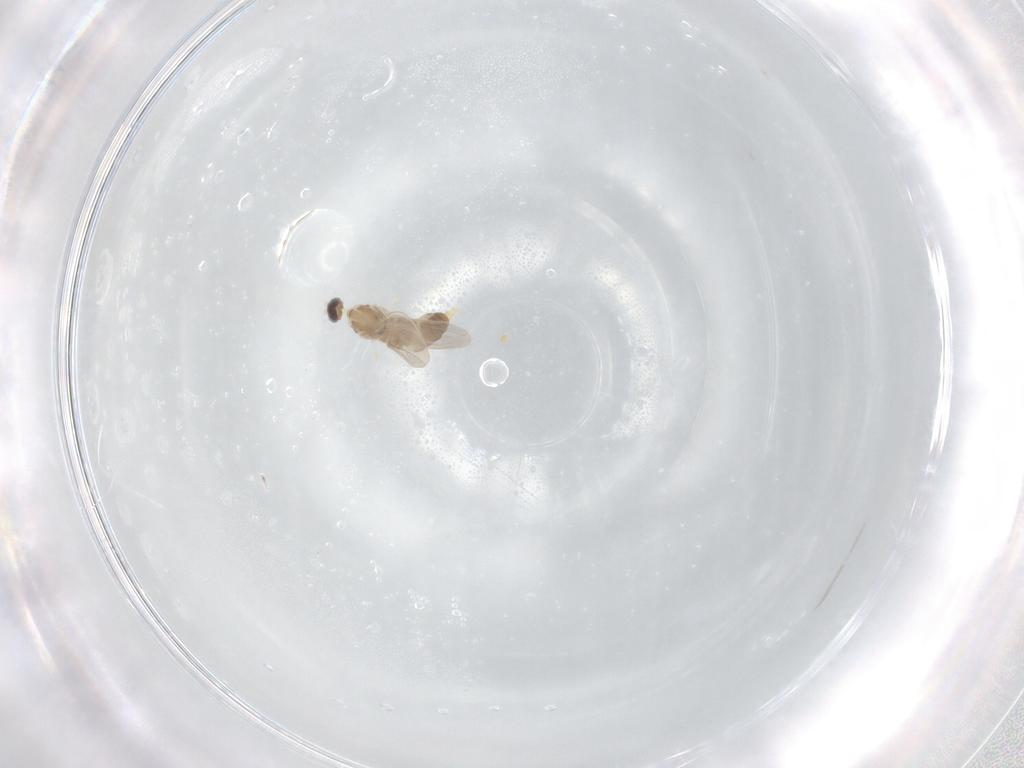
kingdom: Animalia
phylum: Arthropoda
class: Insecta
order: Diptera
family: Cecidomyiidae
